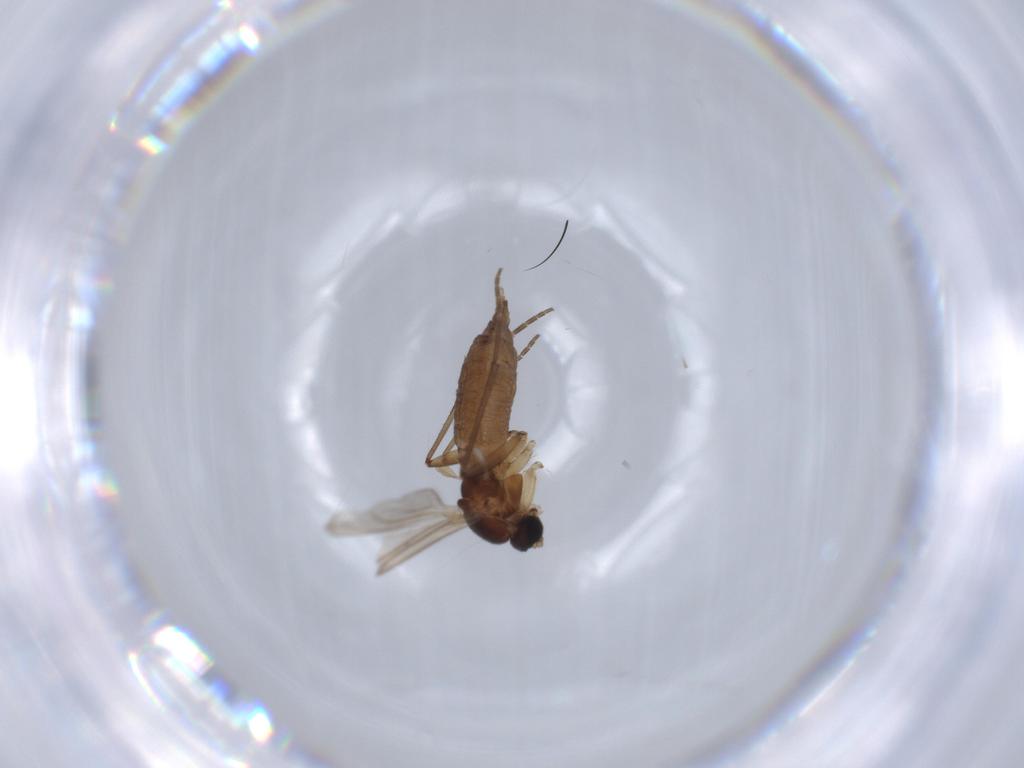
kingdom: Animalia
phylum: Arthropoda
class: Insecta
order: Diptera
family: Sciaridae
